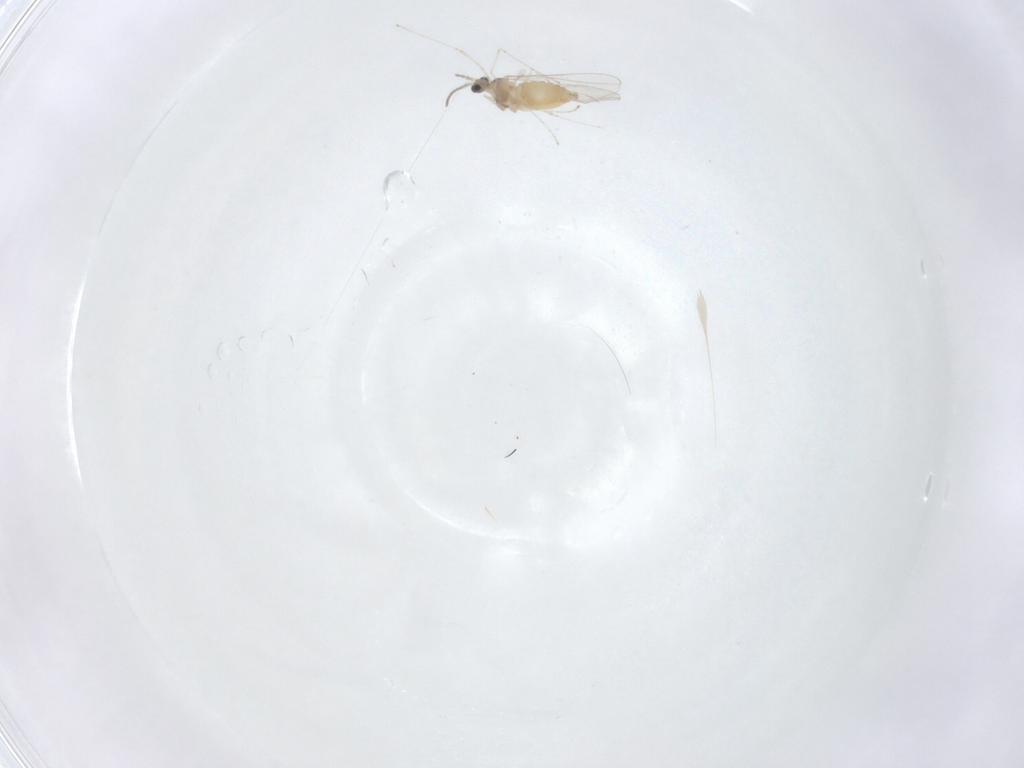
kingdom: Animalia
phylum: Arthropoda
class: Insecta
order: Diptera
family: Cecidomyiidae
